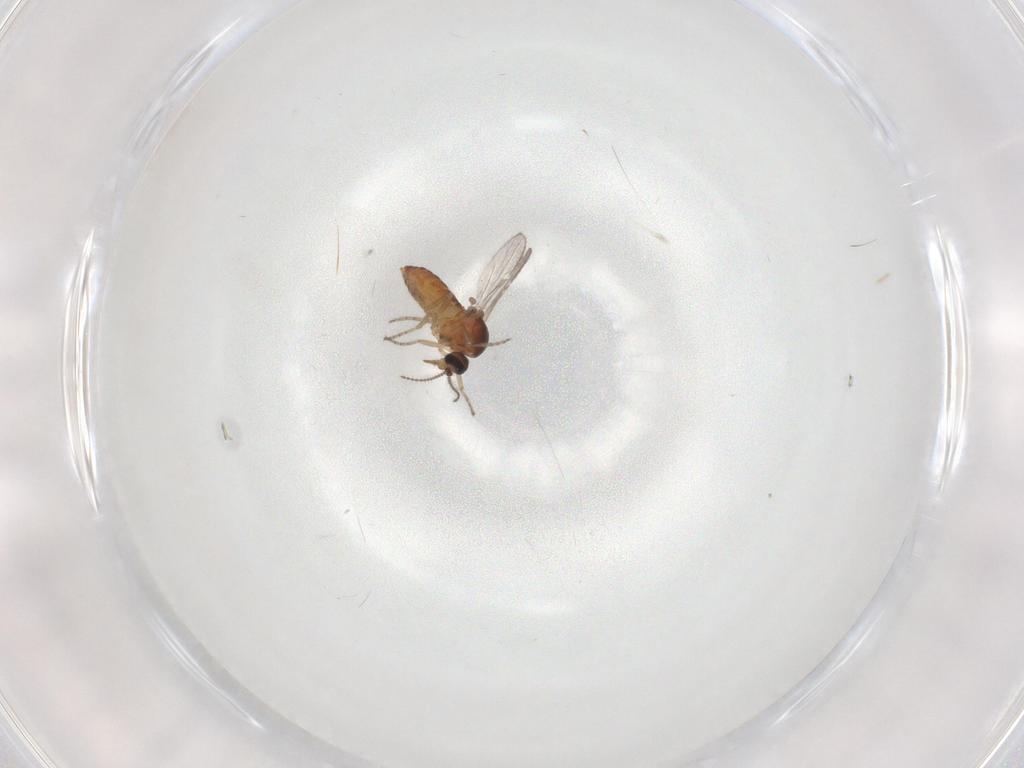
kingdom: Animalia
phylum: Arthropoda
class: Insecta
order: Diptera
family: Ceratopogonidae
